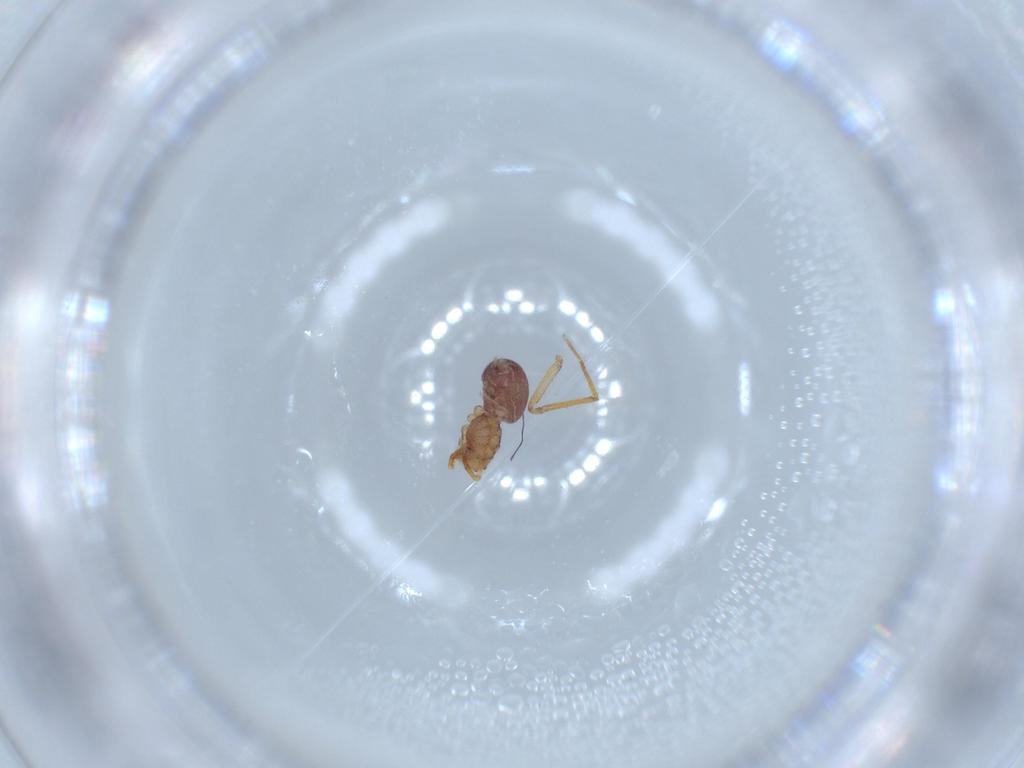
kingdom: Animalia
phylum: Arthropoda
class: Arachnida
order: Araneae
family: Ochyroceratidae
